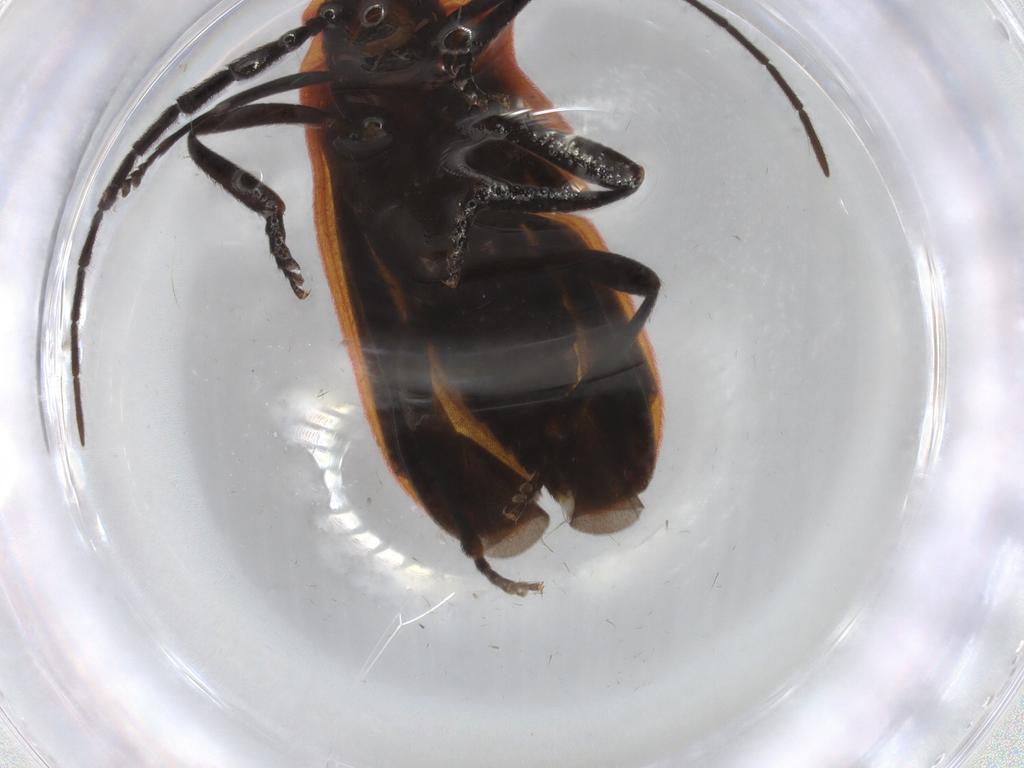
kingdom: Animalia
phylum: Arthropoda
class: Insecta
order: Coleoptera
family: Lycidae
